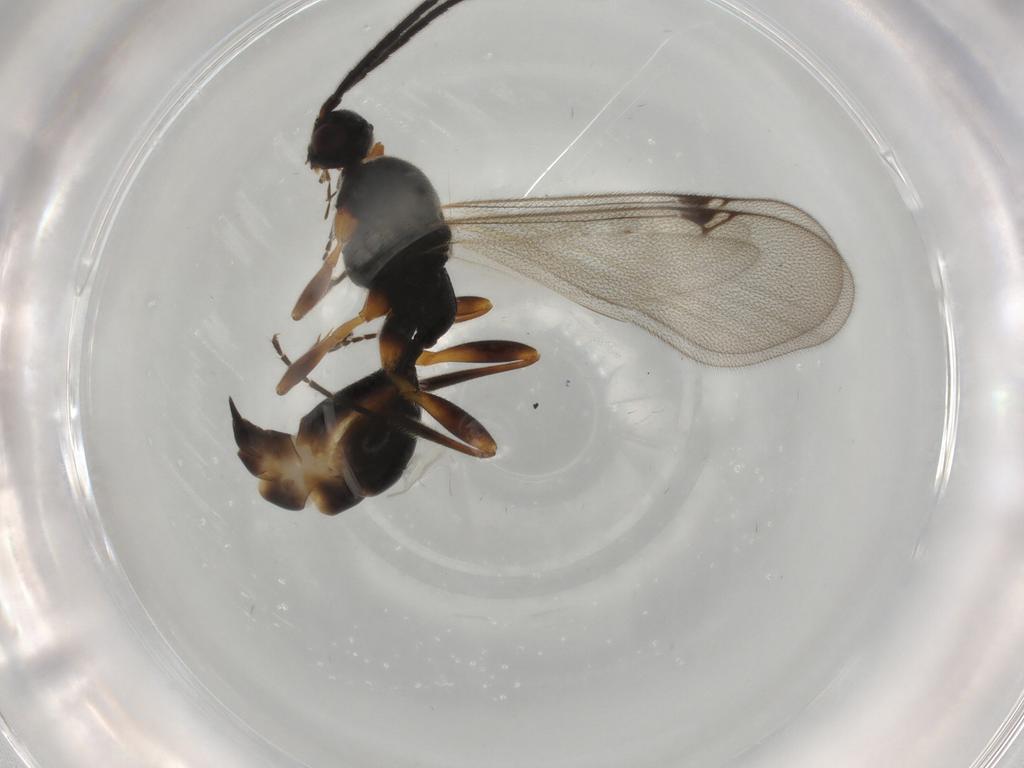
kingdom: Animalia
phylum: Arthropoda
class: Insecta
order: Hymenoptera
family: Proctotrupidae
